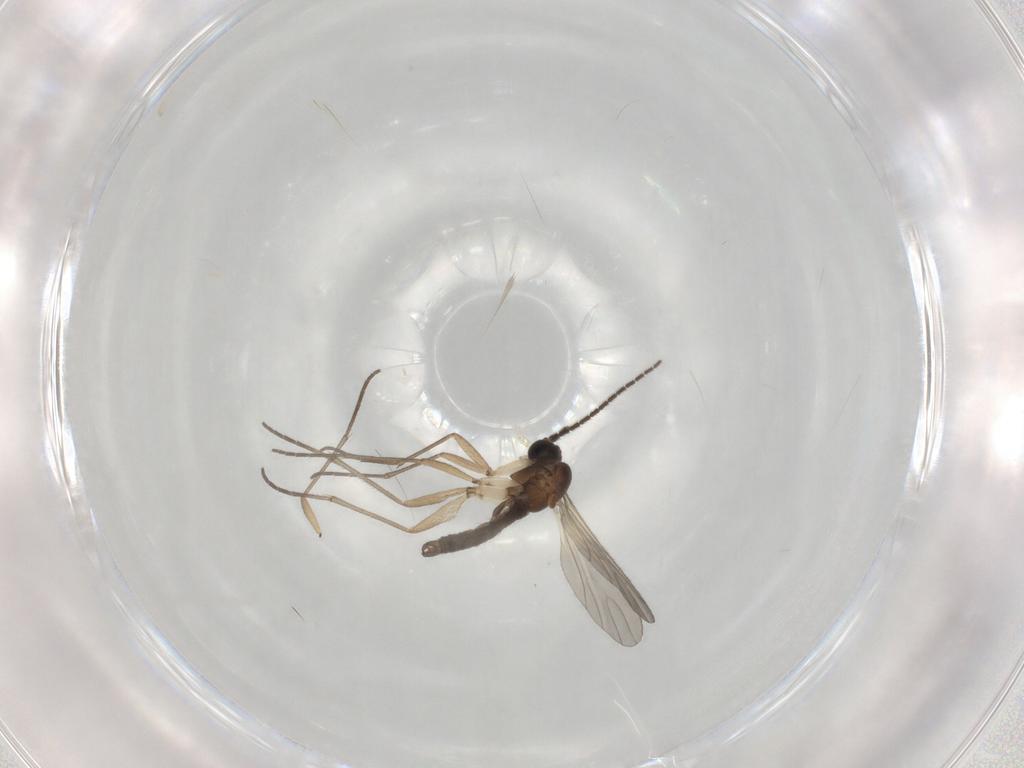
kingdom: Animalia
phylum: Arthropoda
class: Insecta
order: Diptera
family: Sciaridae
